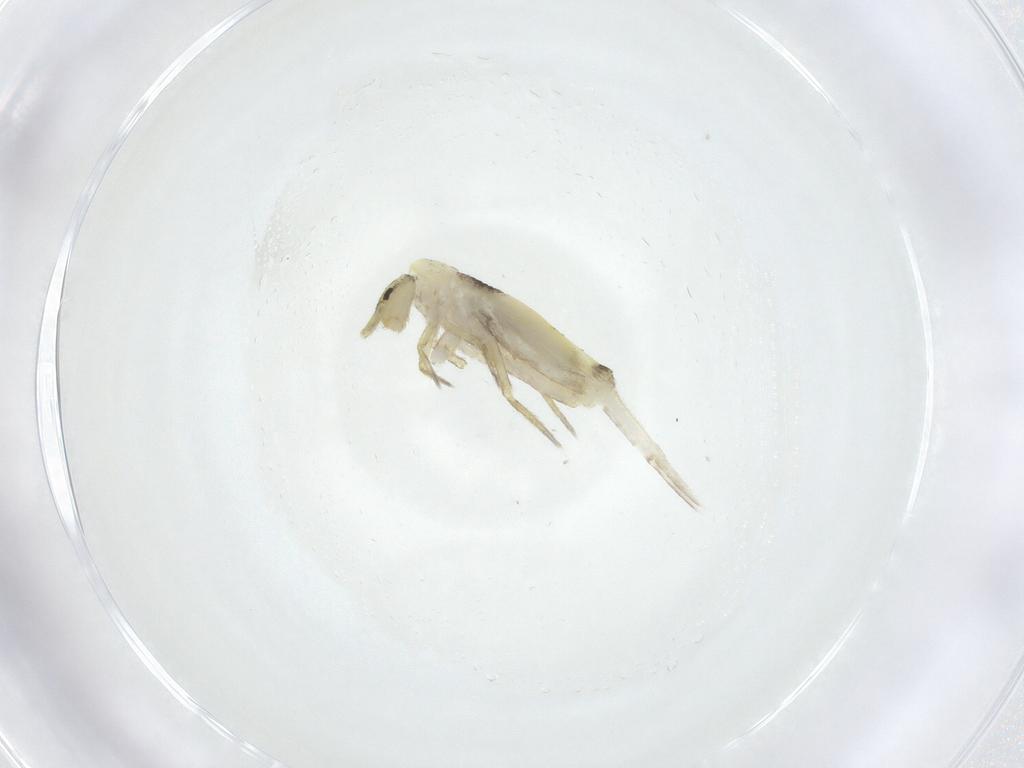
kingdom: Animalia
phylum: Arthropoda
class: Collembola
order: Entomobryomorpha
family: Entomobryidae
